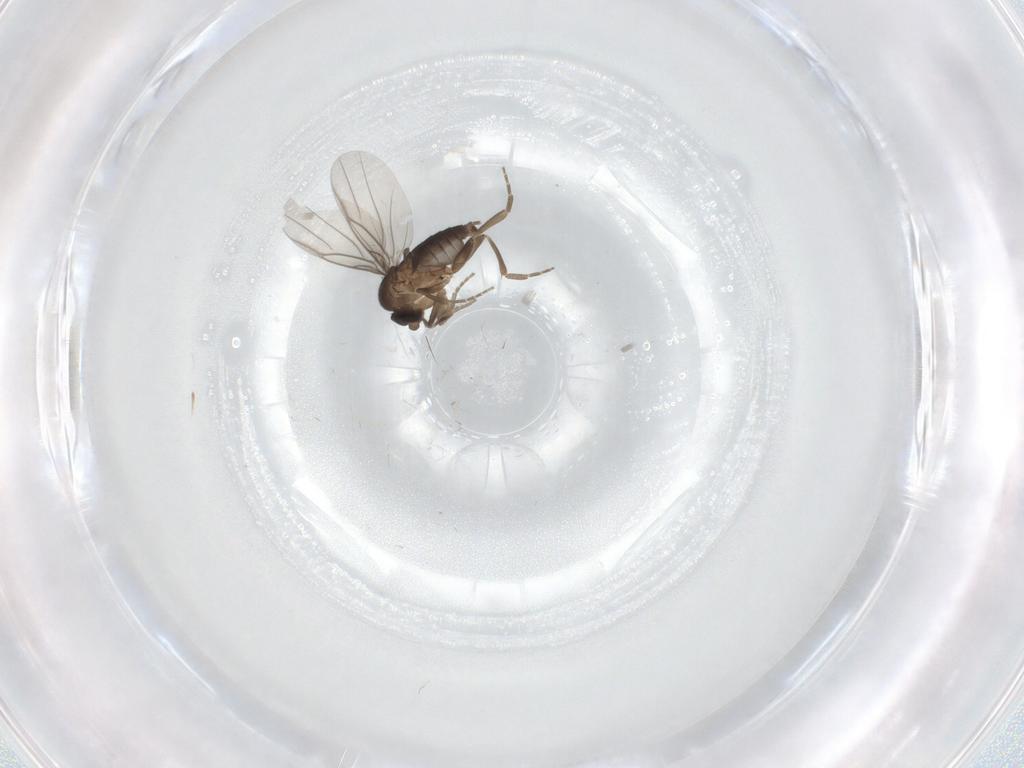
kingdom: Animalia
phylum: Arthropoda
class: Insecta
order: Diptera
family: Phoridae
